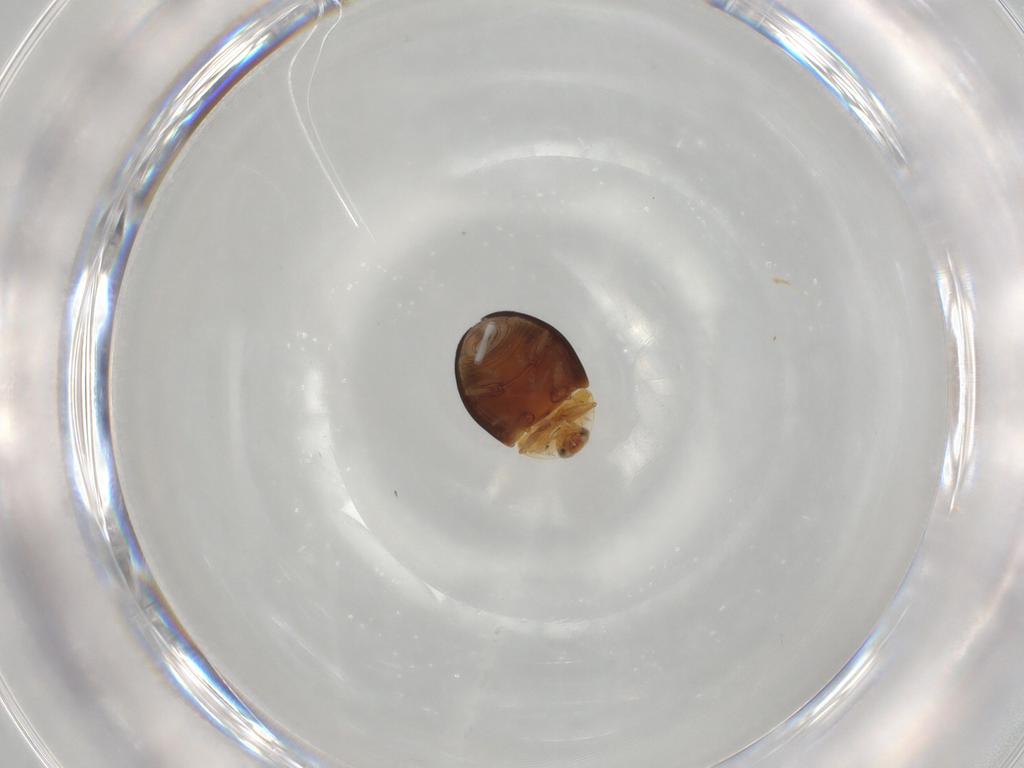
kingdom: Animalia
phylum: Arthropoda
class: Insecta
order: Coleoptera
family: Corylophidae
